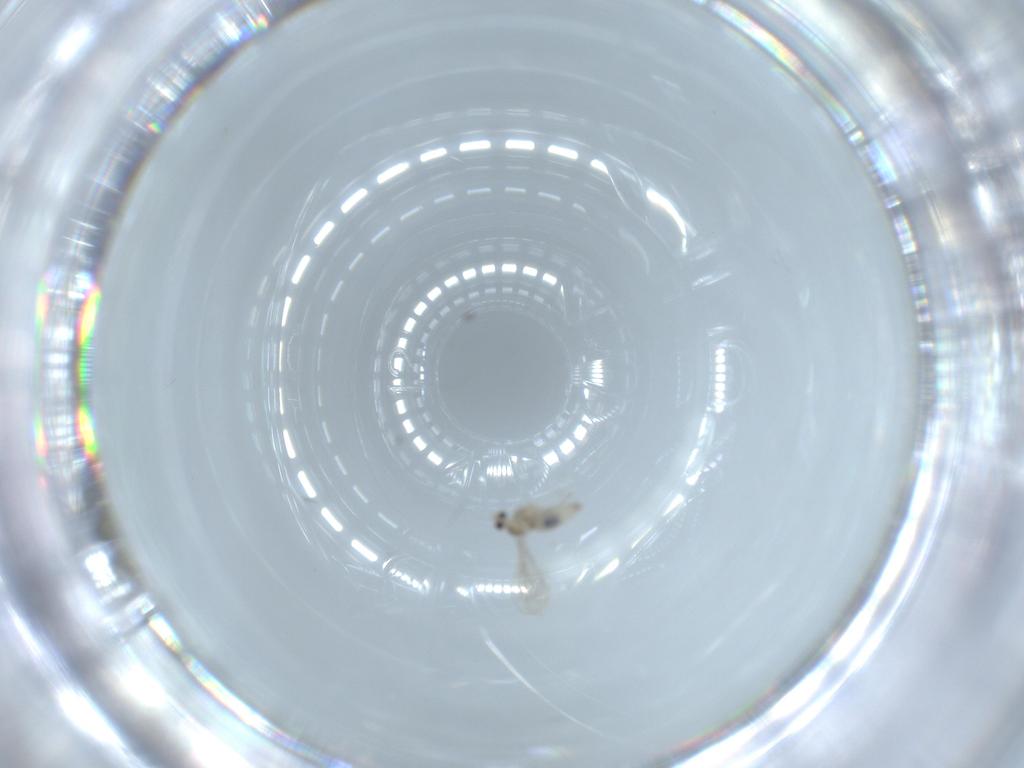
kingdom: Animalia
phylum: Arthropoda
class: Insecta
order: Diptera
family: Cecidomyiidae
